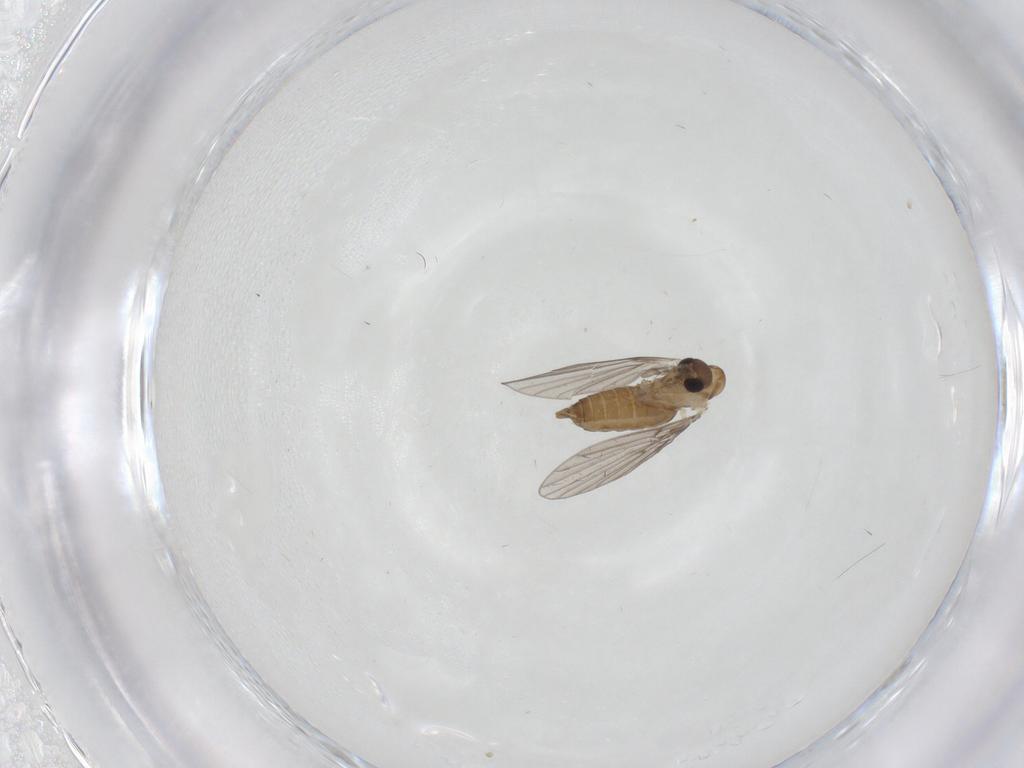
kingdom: Animalia
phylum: Arthropoda
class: Insecta
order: Diptera
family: Cecidomyiidae
